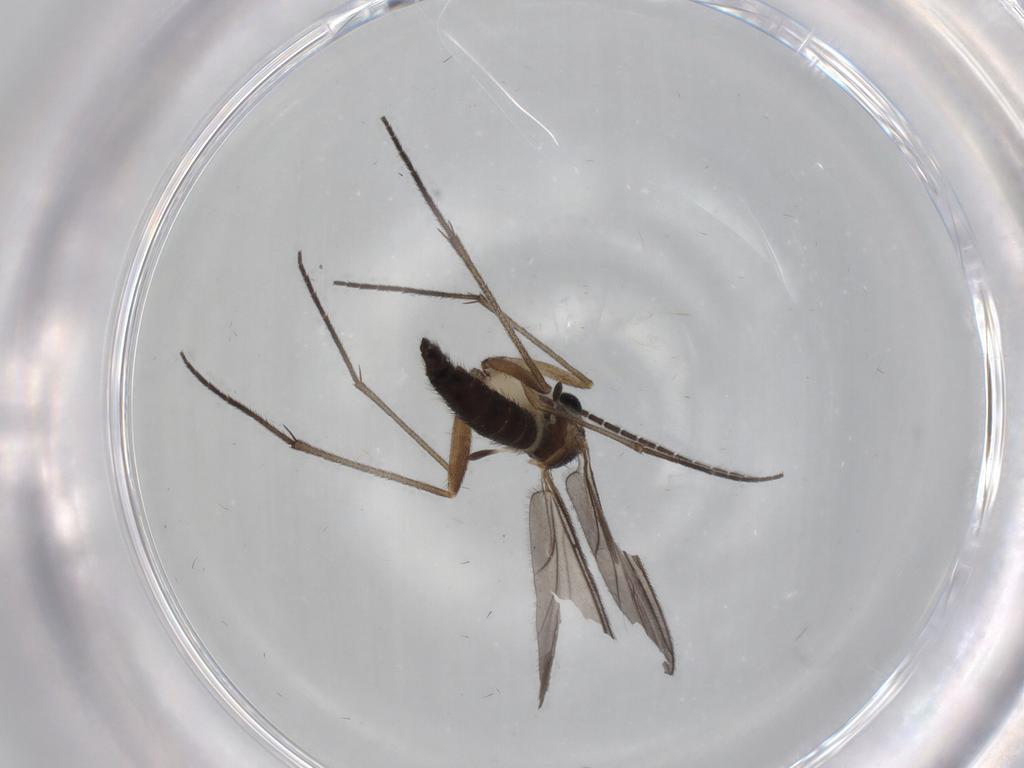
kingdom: Animalia
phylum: Arthropoda
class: Insecta
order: Diptera
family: Sciaridae
